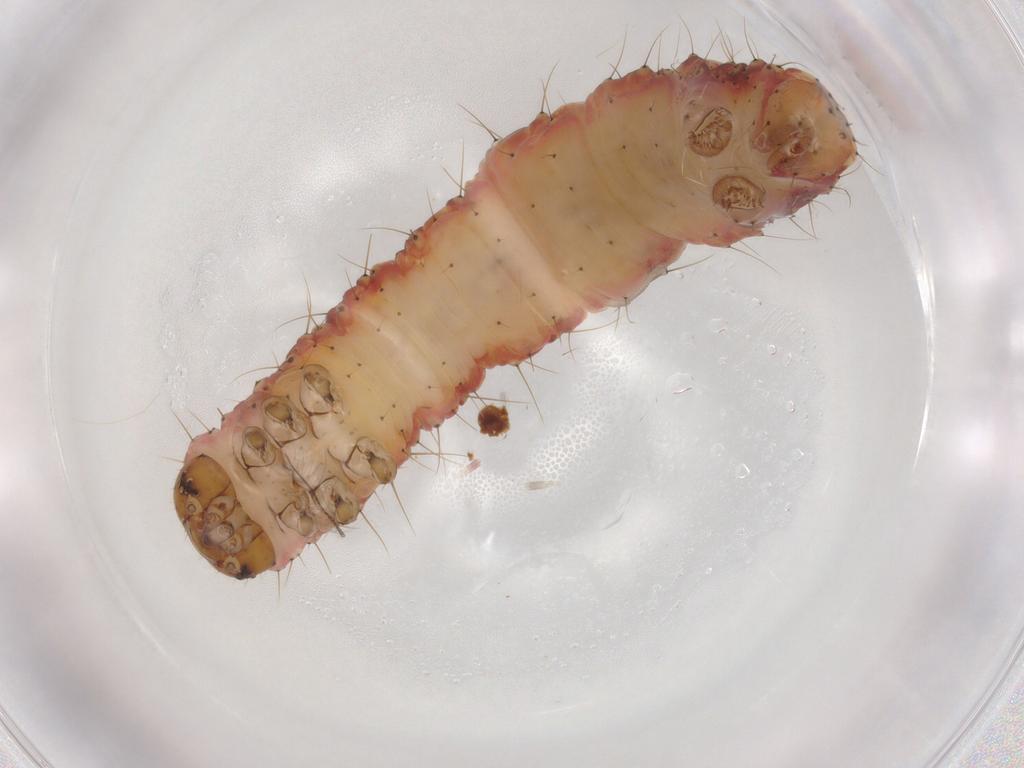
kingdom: Animalia
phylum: Arthropoda
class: Insecta
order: Lepidoptera
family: Geometridae
